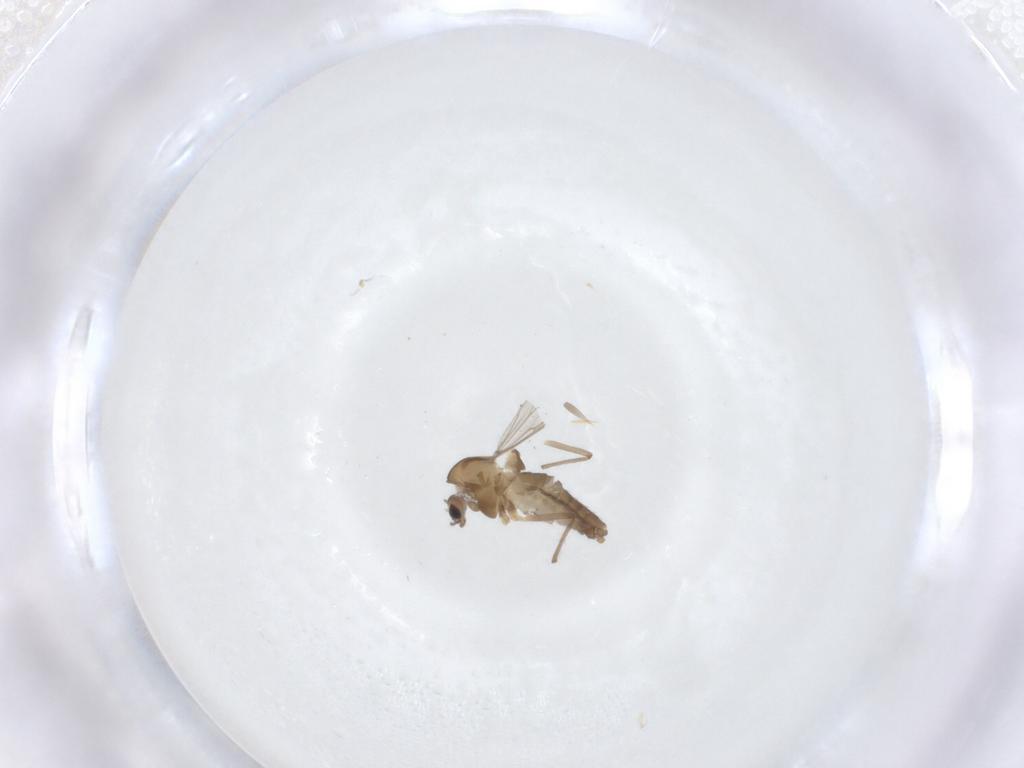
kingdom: Animalia
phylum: Arthropoda
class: Insecta
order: Diptera
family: Chironomidae
